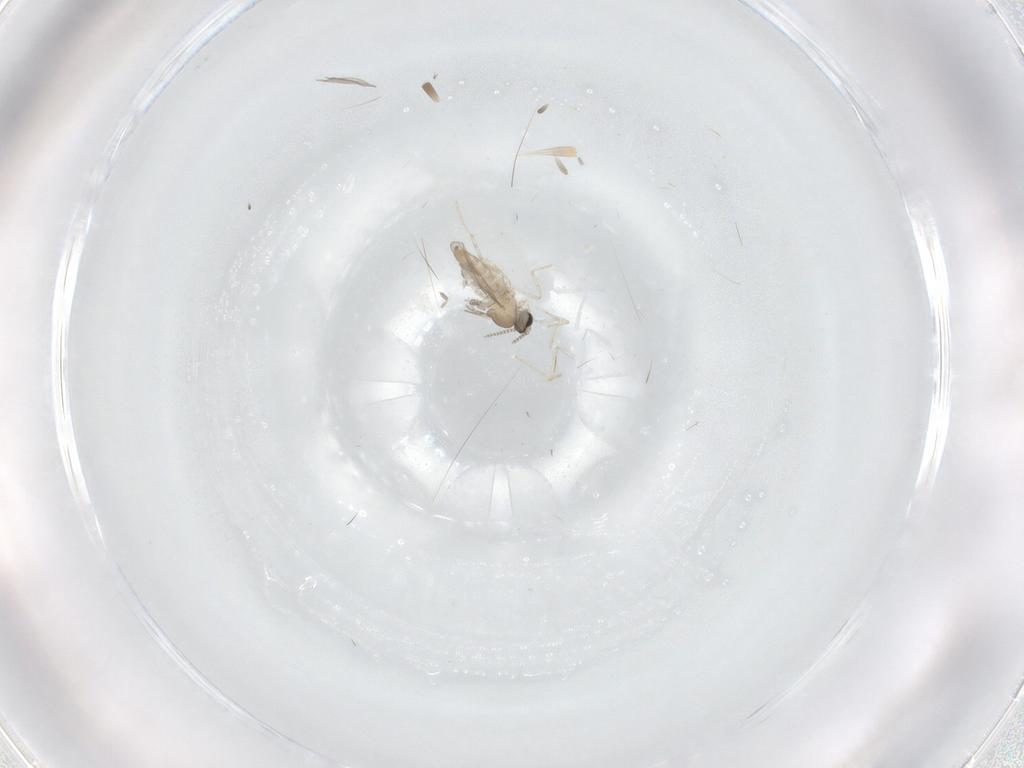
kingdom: Animalia
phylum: Arthropoda
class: Insecta
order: Diptera
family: Cecidomyiidae
